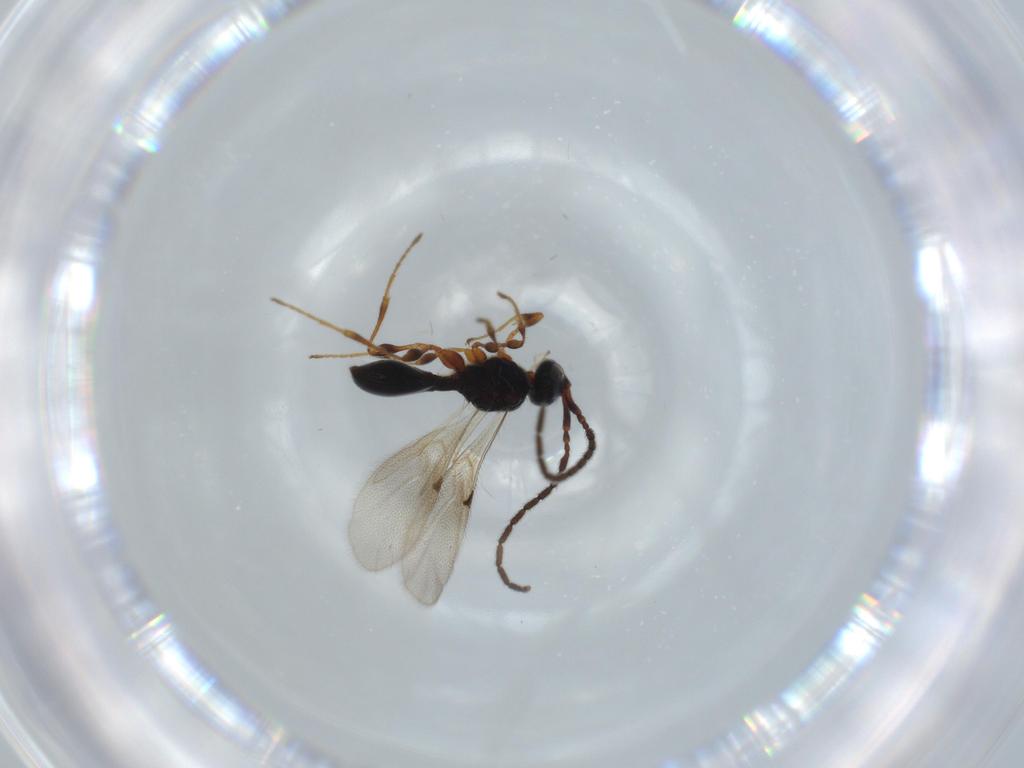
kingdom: Animalia
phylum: Arthropoda
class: Insecta
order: Hymenoptera
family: Diapriidae
